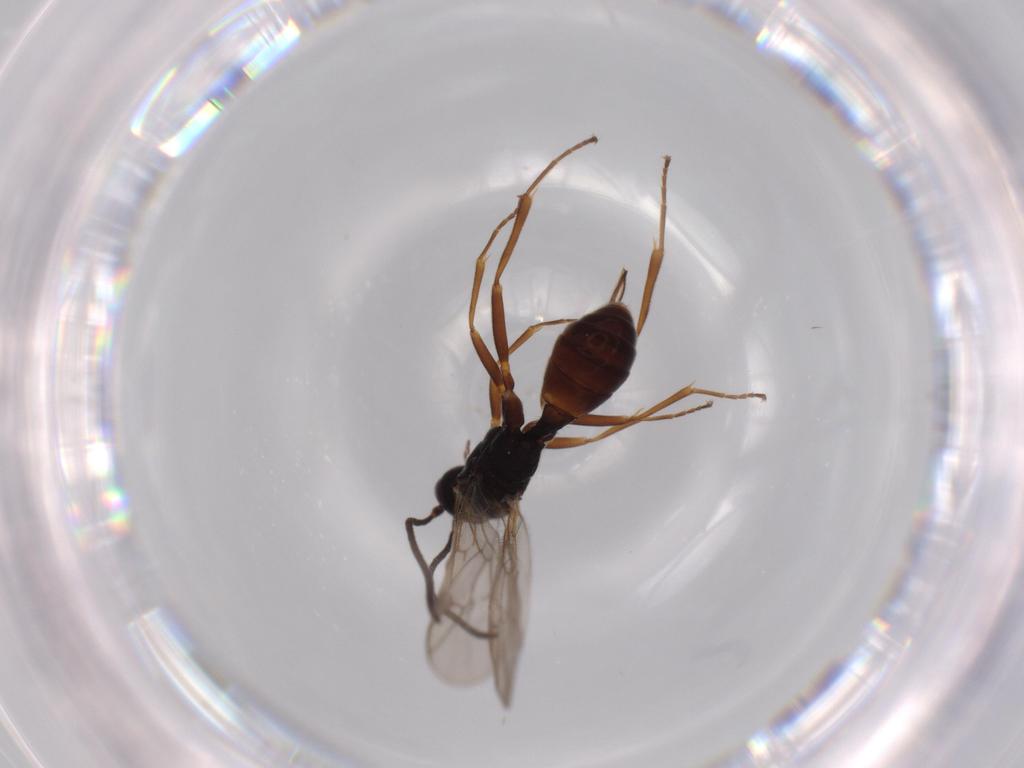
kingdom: Animalia
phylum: Arthropoda
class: Insecta
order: Hymenoptera
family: Ichneumonidae
